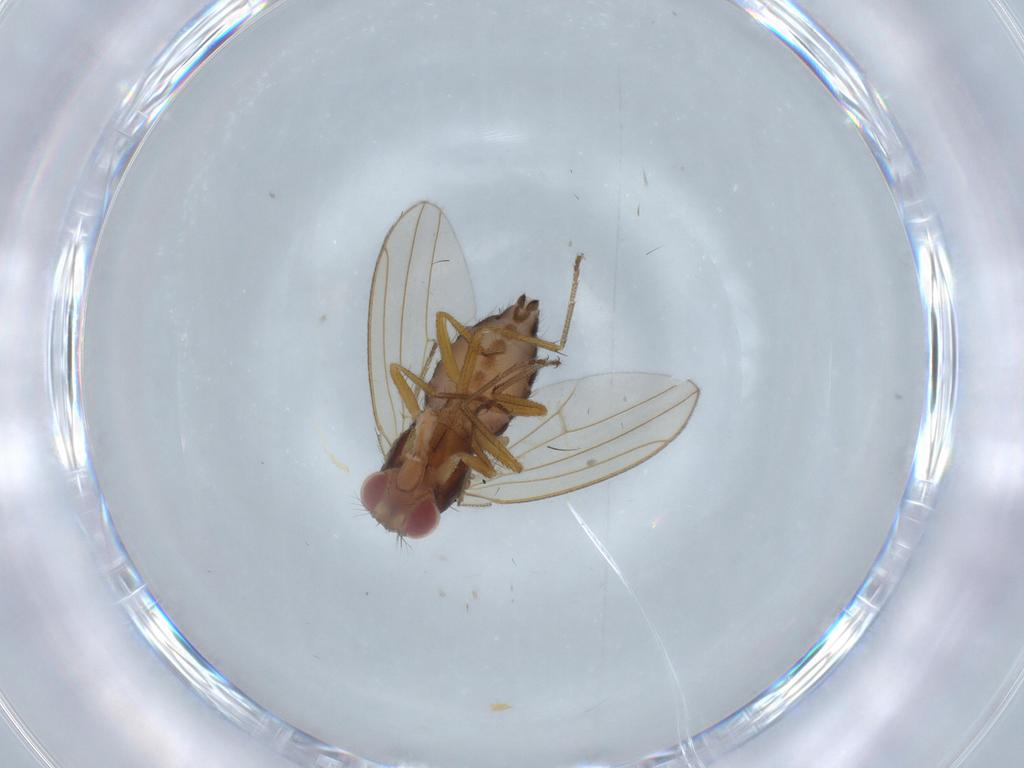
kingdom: Animalia
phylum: Arthropoda
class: Insecta
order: Diptera
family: Drosophilidae
